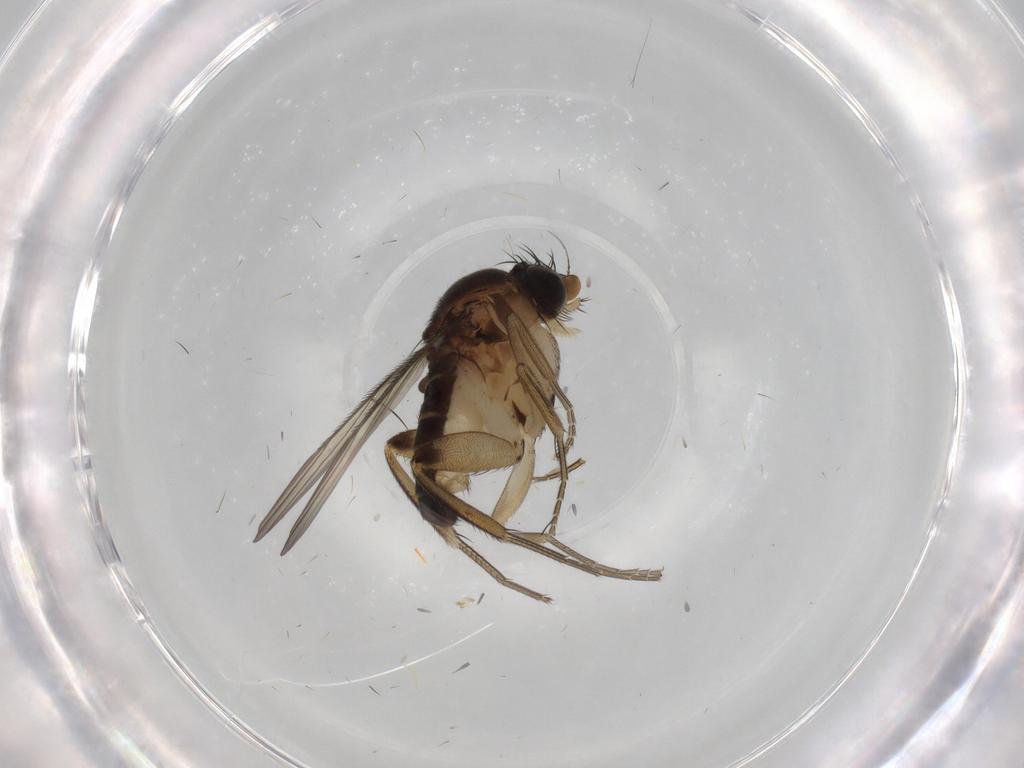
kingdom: Animalia
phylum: Arthropoda
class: Insecta
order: Diptera
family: Phoridae
